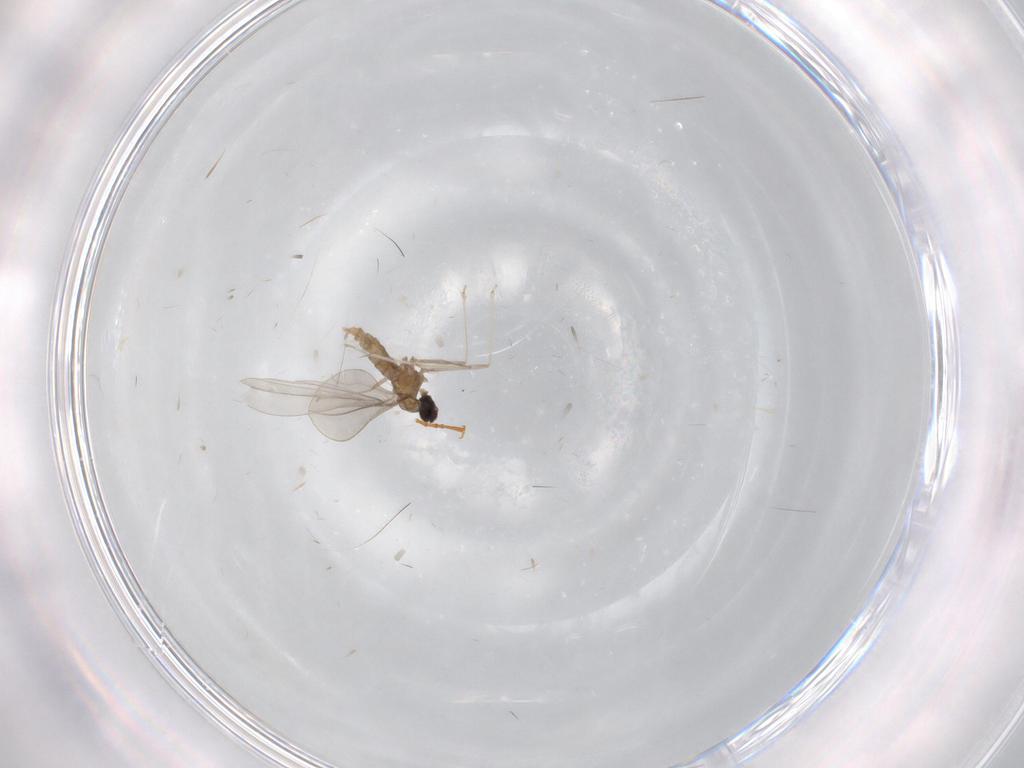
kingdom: Animalia
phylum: Arthropoda
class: Insecta
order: Diptera
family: Cecidomyiidae
